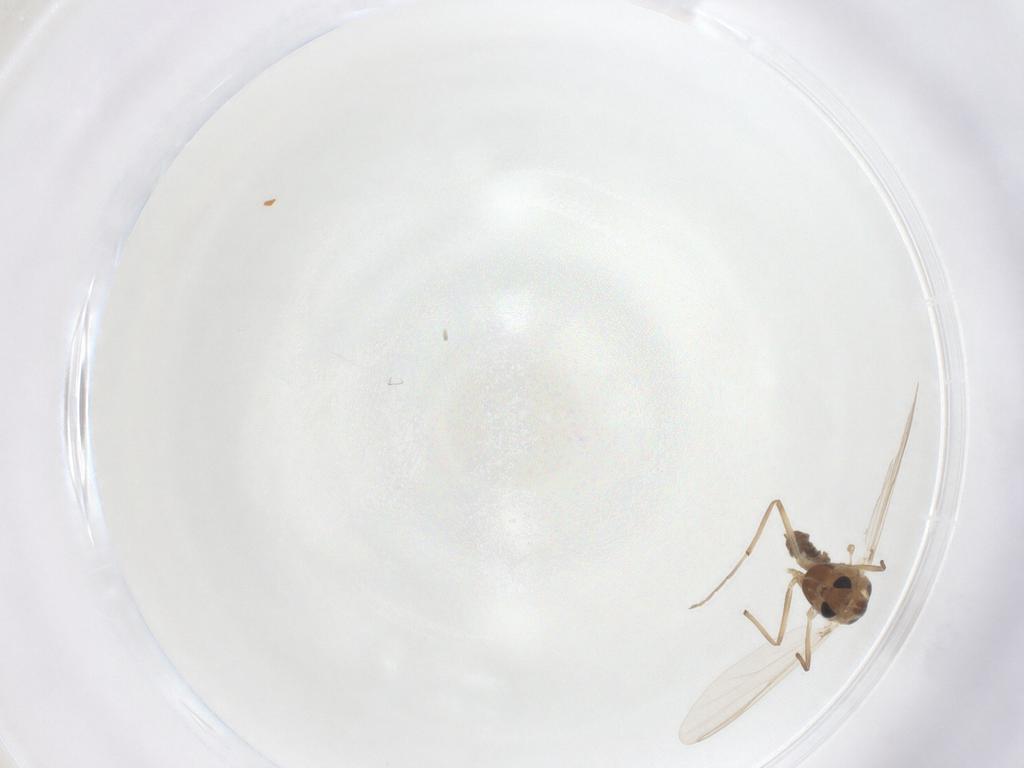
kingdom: Animalia
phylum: Arthropoda
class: Insecta
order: Diptera
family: Chironomidae
